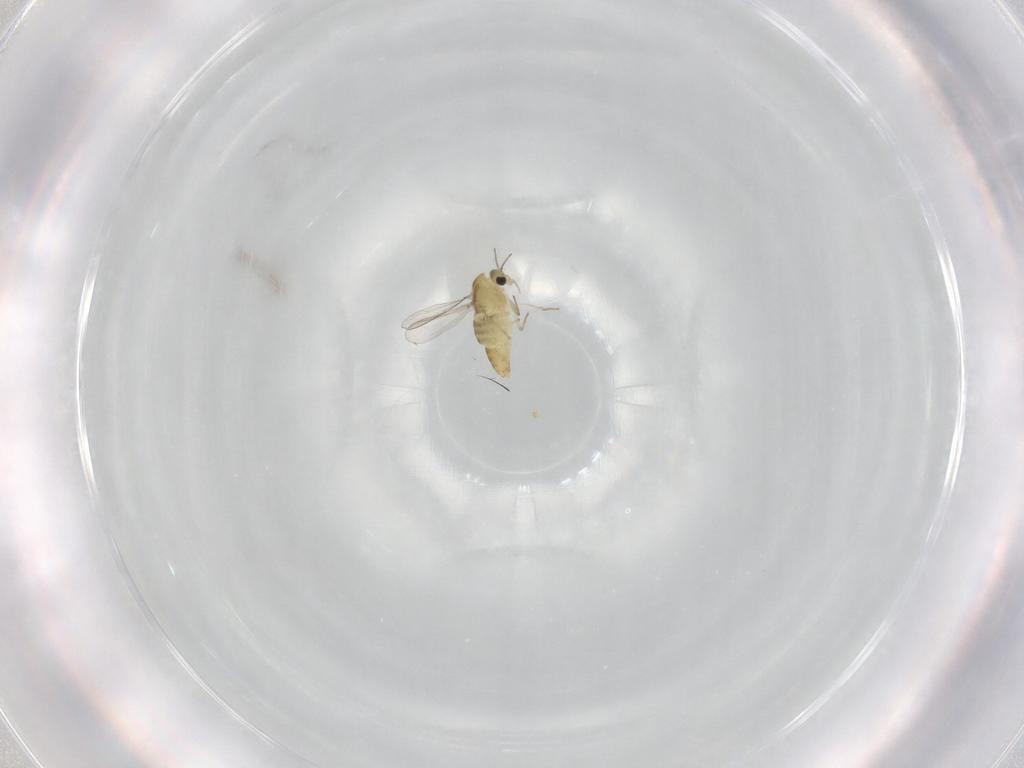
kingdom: Animalia
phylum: Arthropoda
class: Insecta
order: Diptera
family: Chironomidae
